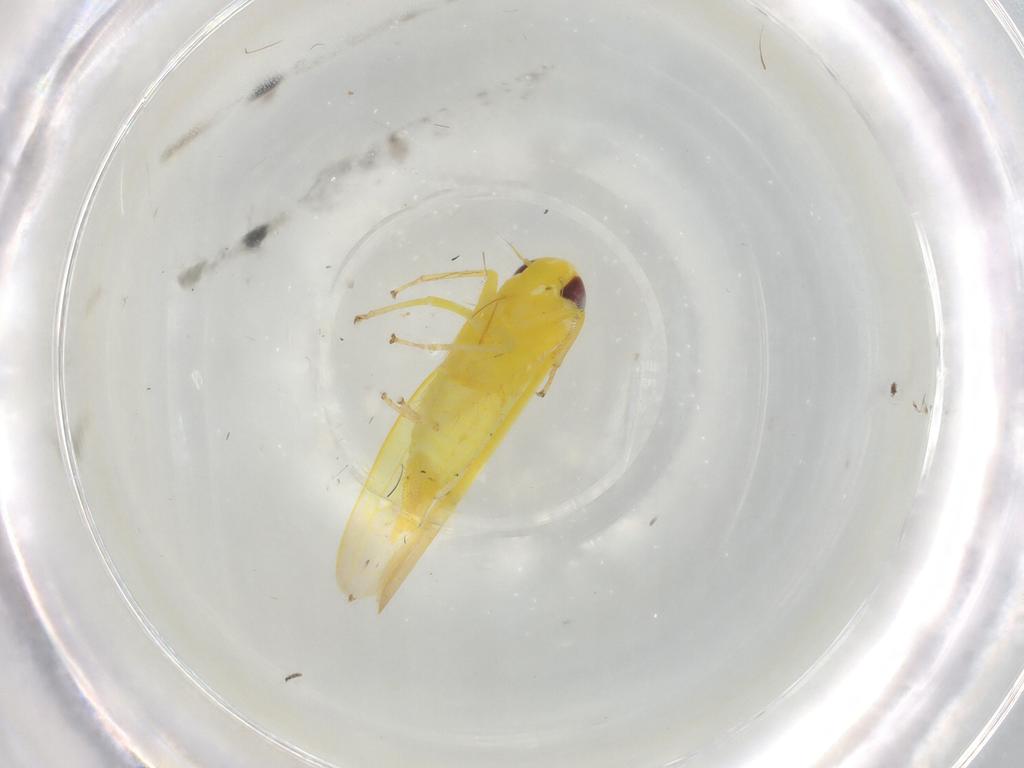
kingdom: Animalia
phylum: Arthropoda
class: Insecta
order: Hemiptera
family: Cicadellidae
